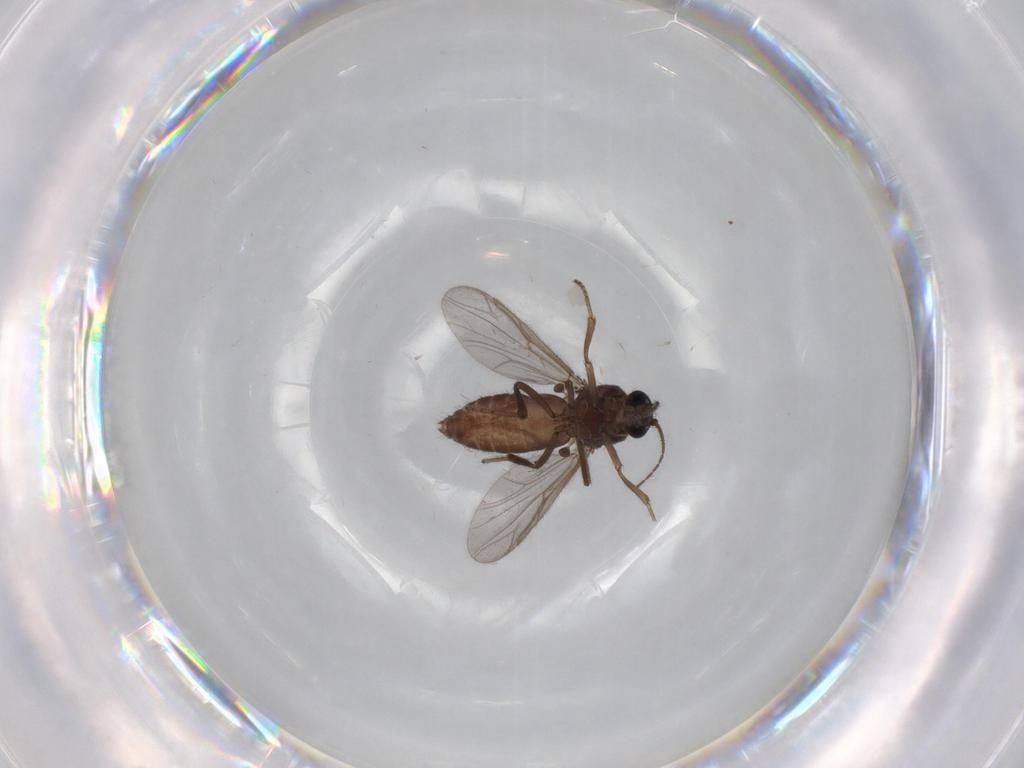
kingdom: Animalia
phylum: Arthropoda
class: Insecta
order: Diptera
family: Ceratopogonidae
